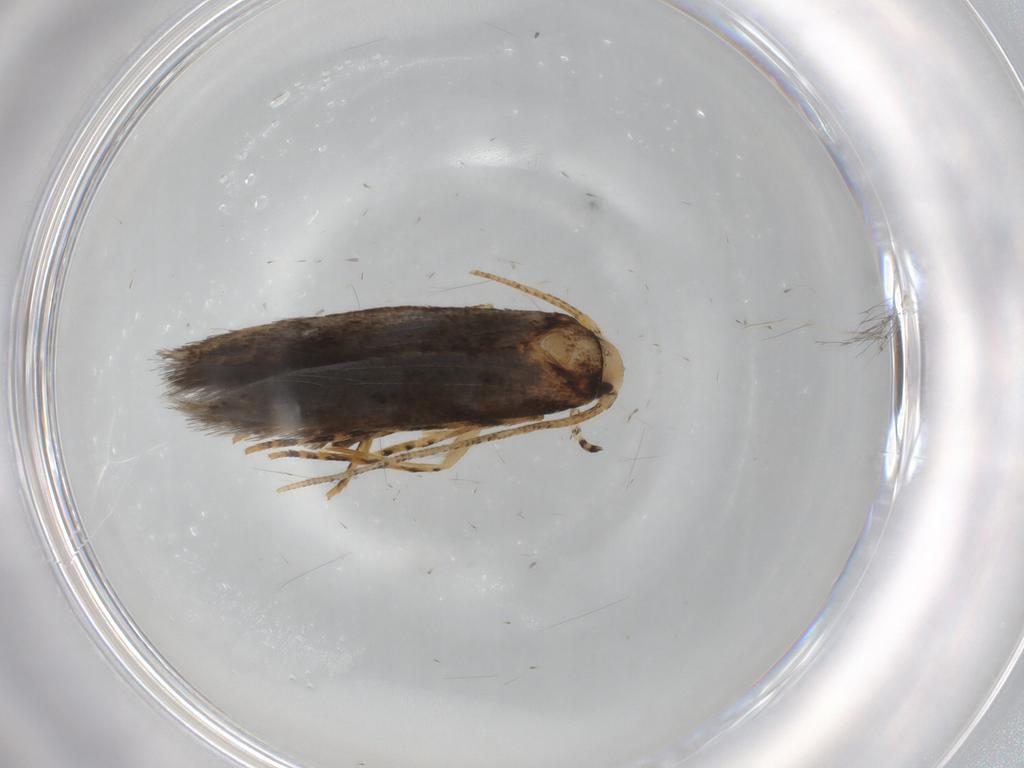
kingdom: Animalia
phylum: Arthropoda
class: Insecta
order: Lepidoptera
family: Gelechiidae
